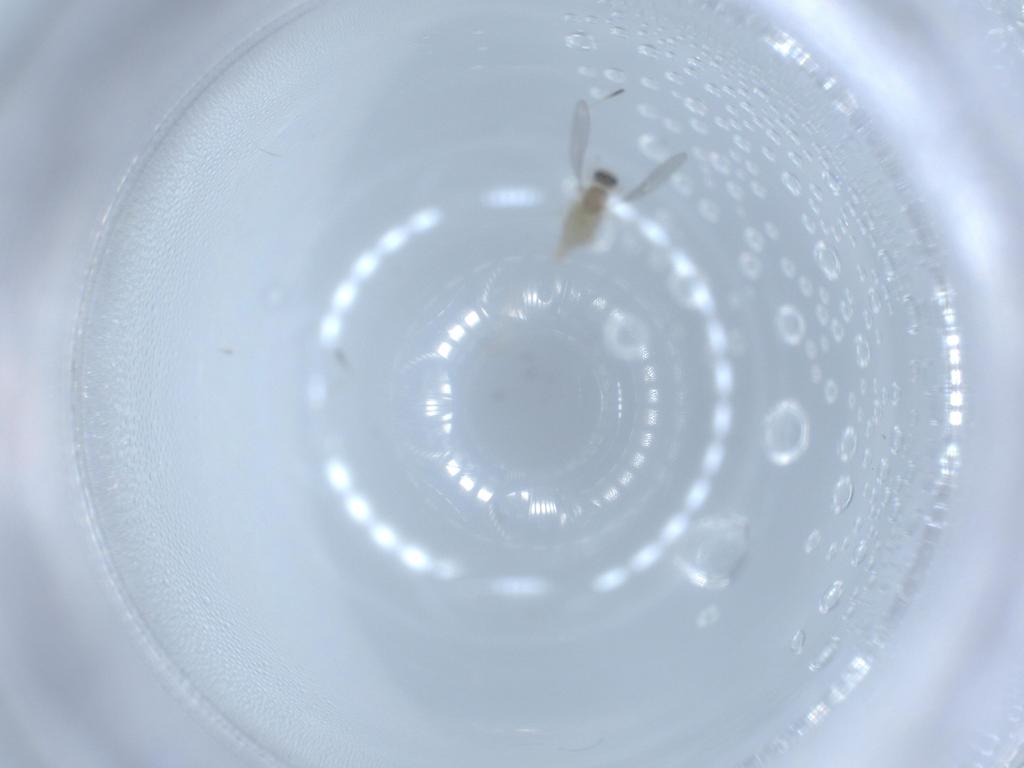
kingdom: Animalia
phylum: Arthropoda
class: Insecta
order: Diptera
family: Cecidomyiidae
